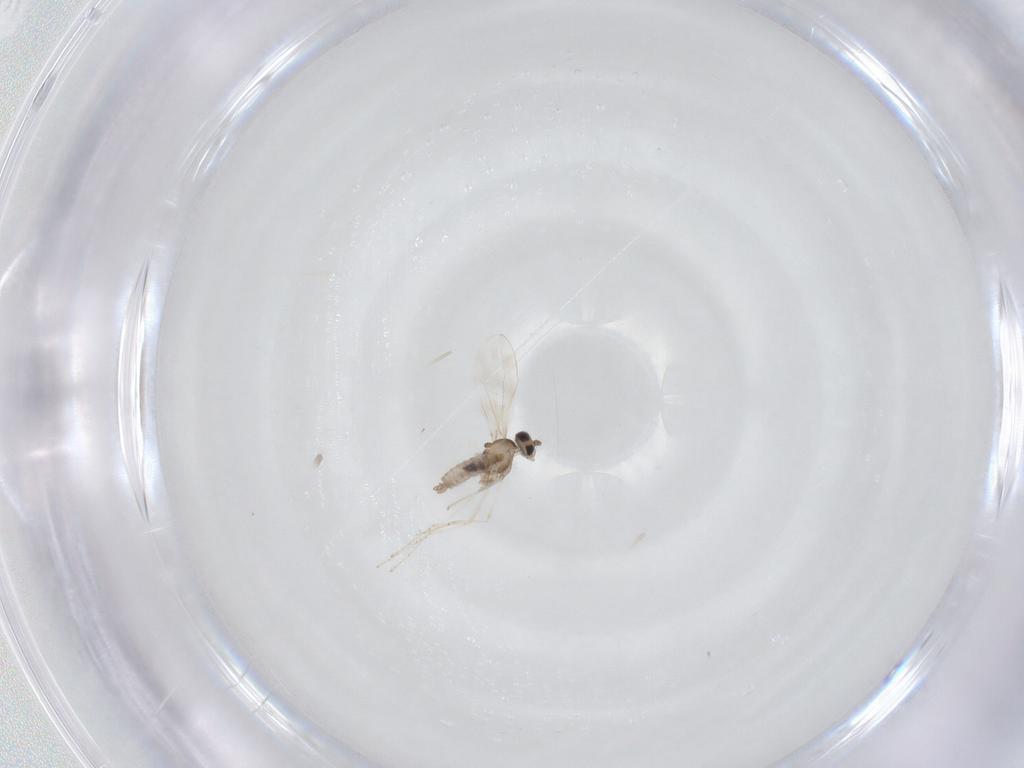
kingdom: Animalia
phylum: Arthropoda
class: Insecta
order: Diptera
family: Cecidomyiidae
